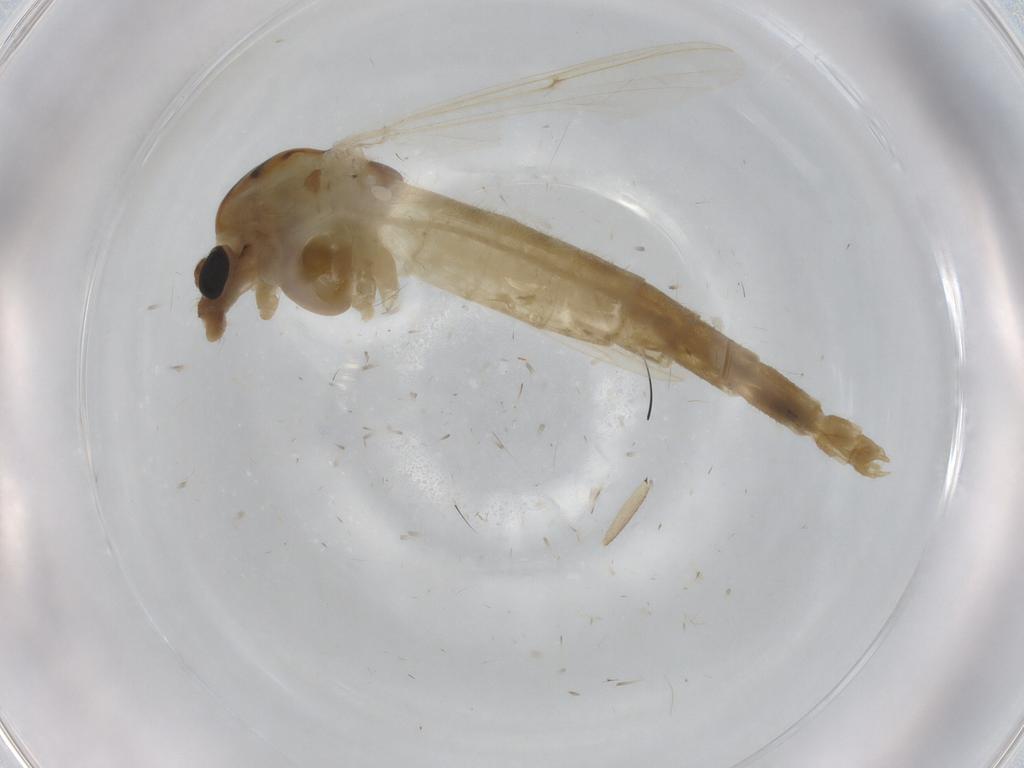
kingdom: Animalia
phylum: Arthropoda
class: Insecta
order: Diptera
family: Chironomidae
